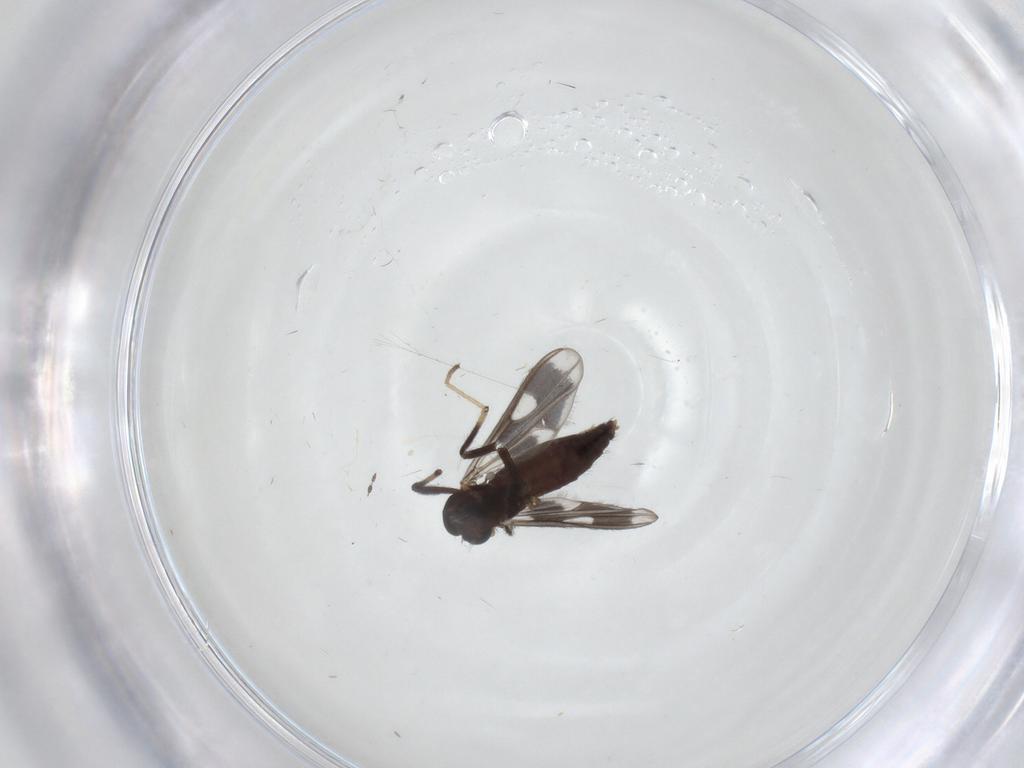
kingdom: Animalia
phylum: Arthropoda
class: Insecta
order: Diptera
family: Chironomidae
